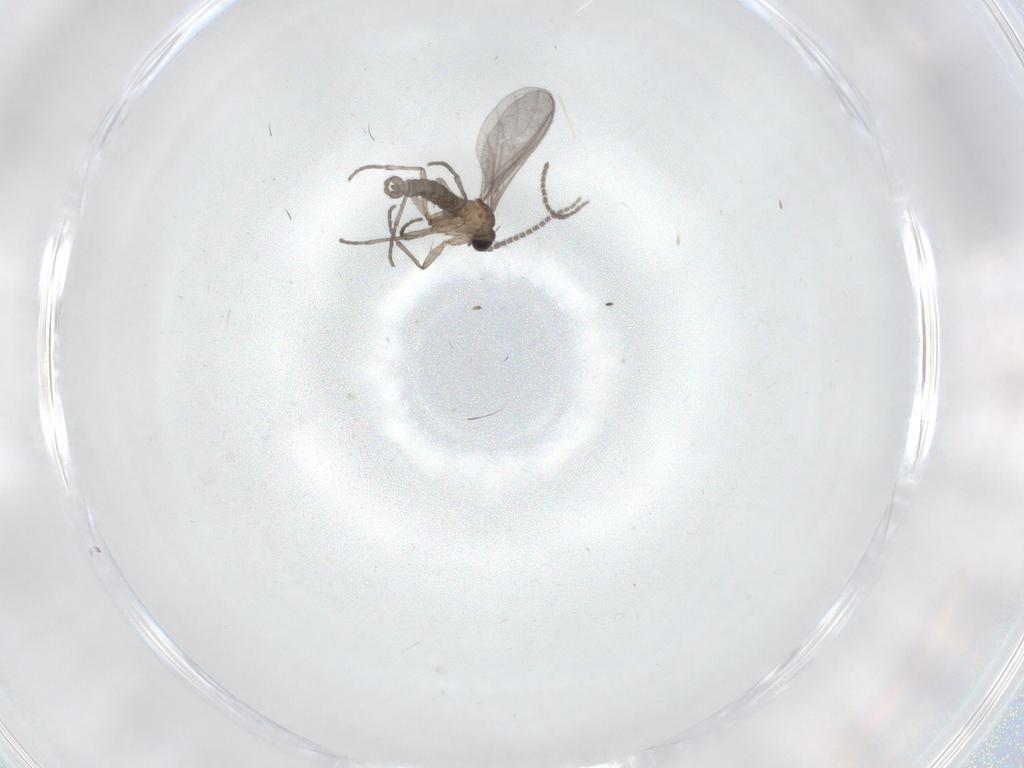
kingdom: Animalia
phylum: Arthropoda
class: Insecta
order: Diptera
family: Sciaridae
